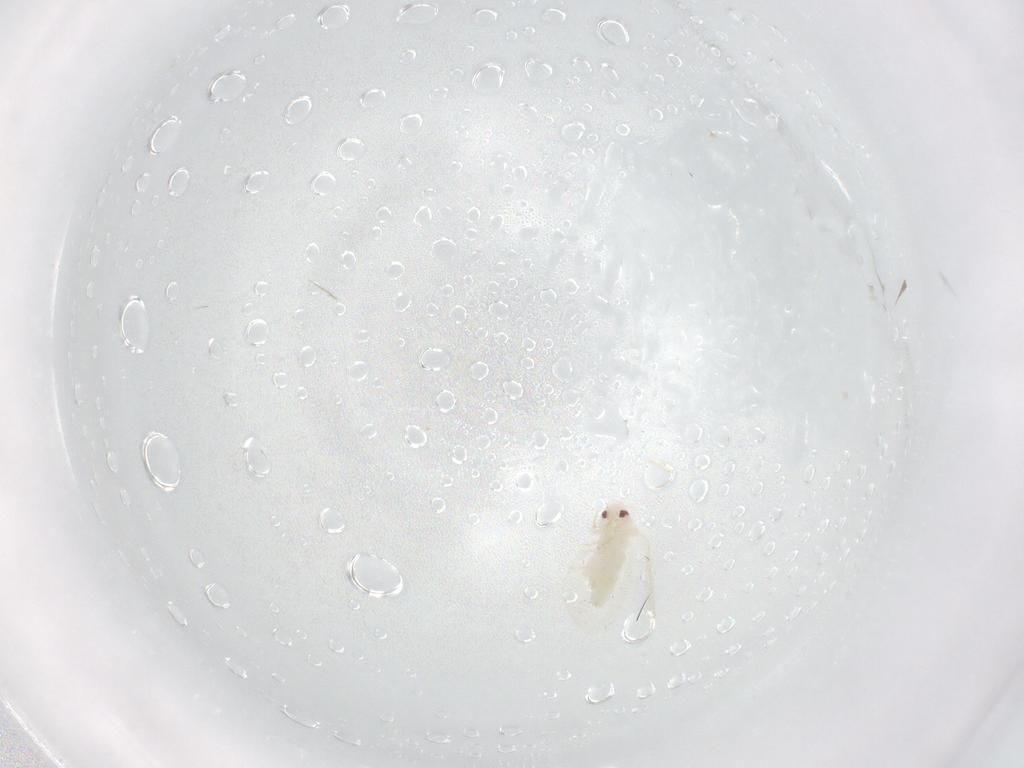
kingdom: Animalia
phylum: Arthropoda
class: Insecta
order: Hemiptera
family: Aleyrodidae
